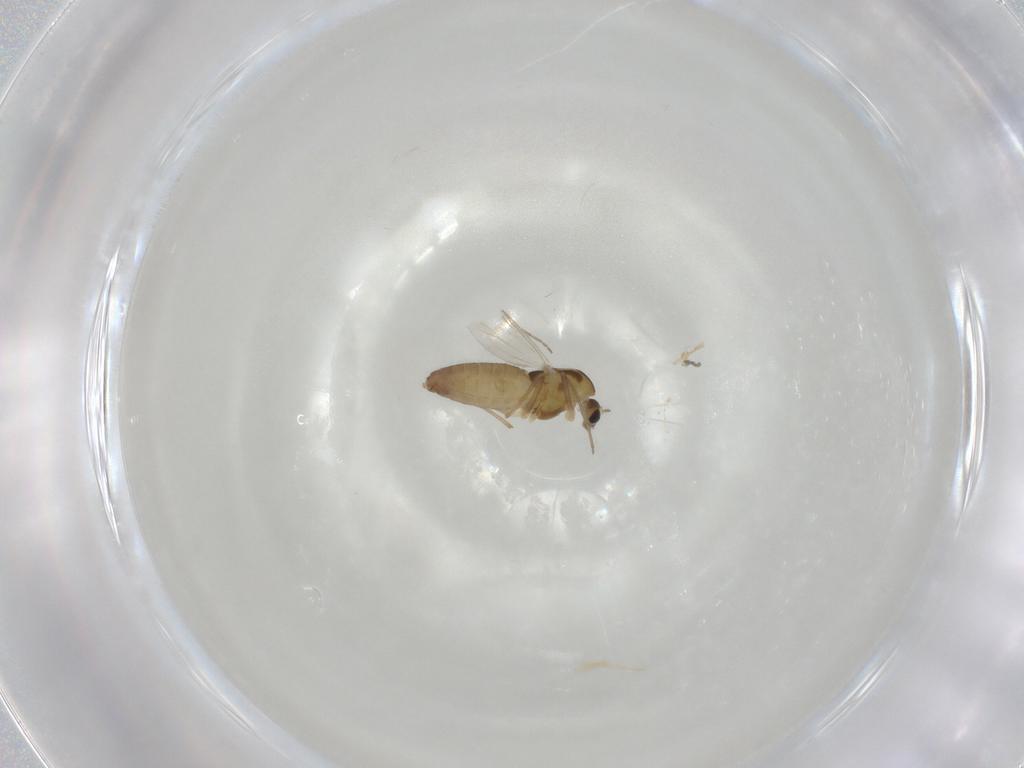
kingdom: Animalia
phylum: Arthropoda
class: Insecta
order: Diptera
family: Chironomidae
